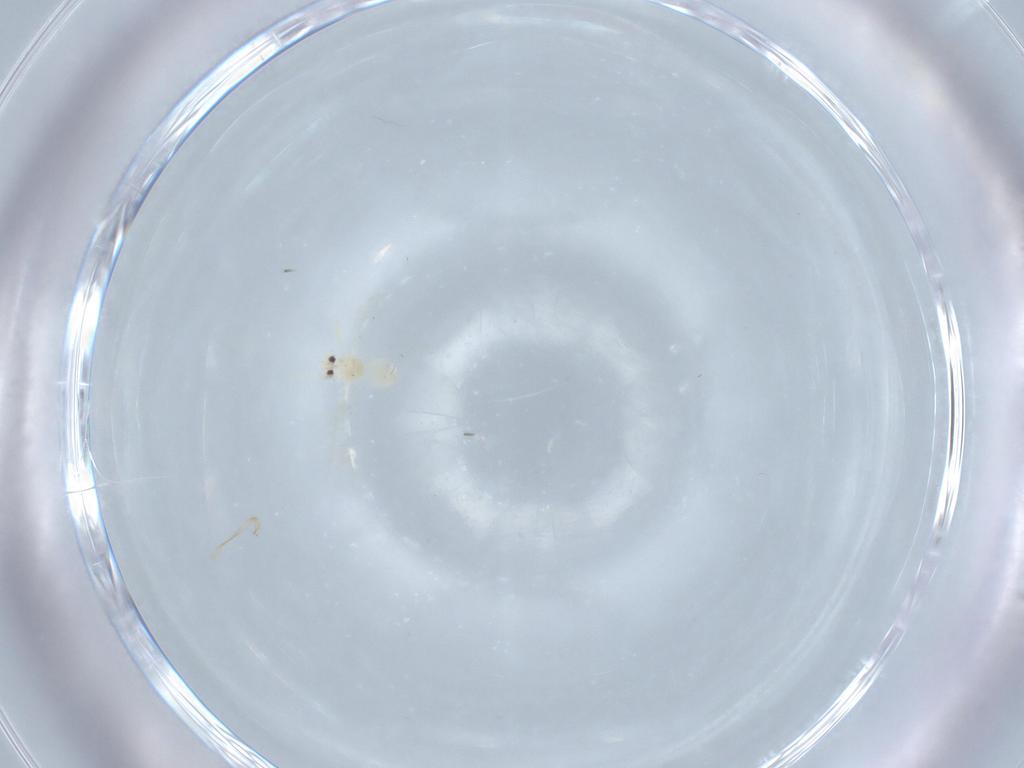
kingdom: Animalia
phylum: Arthropoda
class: Insecta
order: Hemiptera
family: Aleyrodidae
